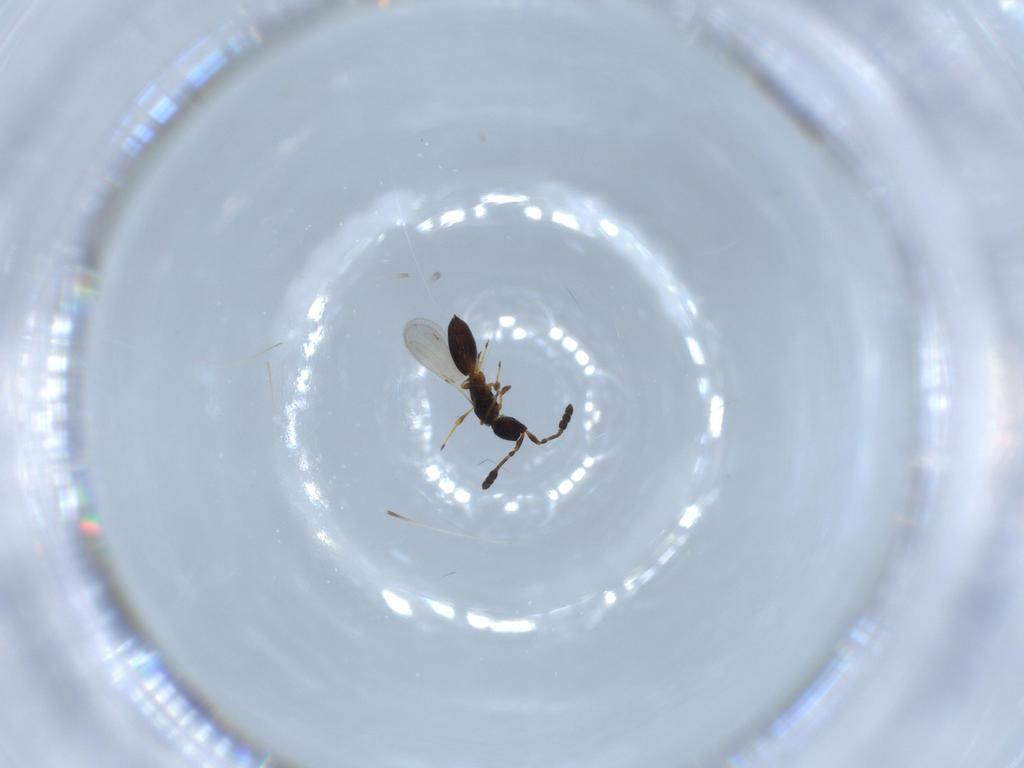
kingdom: Animalia
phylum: Arthropoda
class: Insecta
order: Hymenoptera
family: Diapriidae
